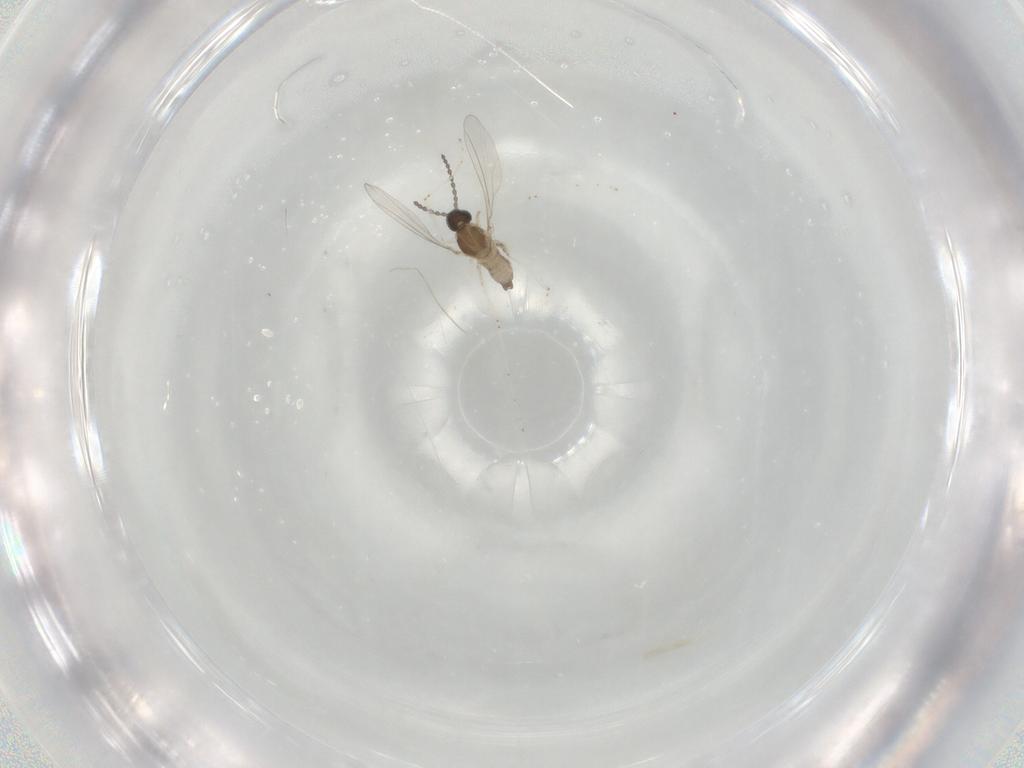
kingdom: Animalia
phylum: Arthropoda
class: Insecta
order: Diptera
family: Cecidomyiidae
